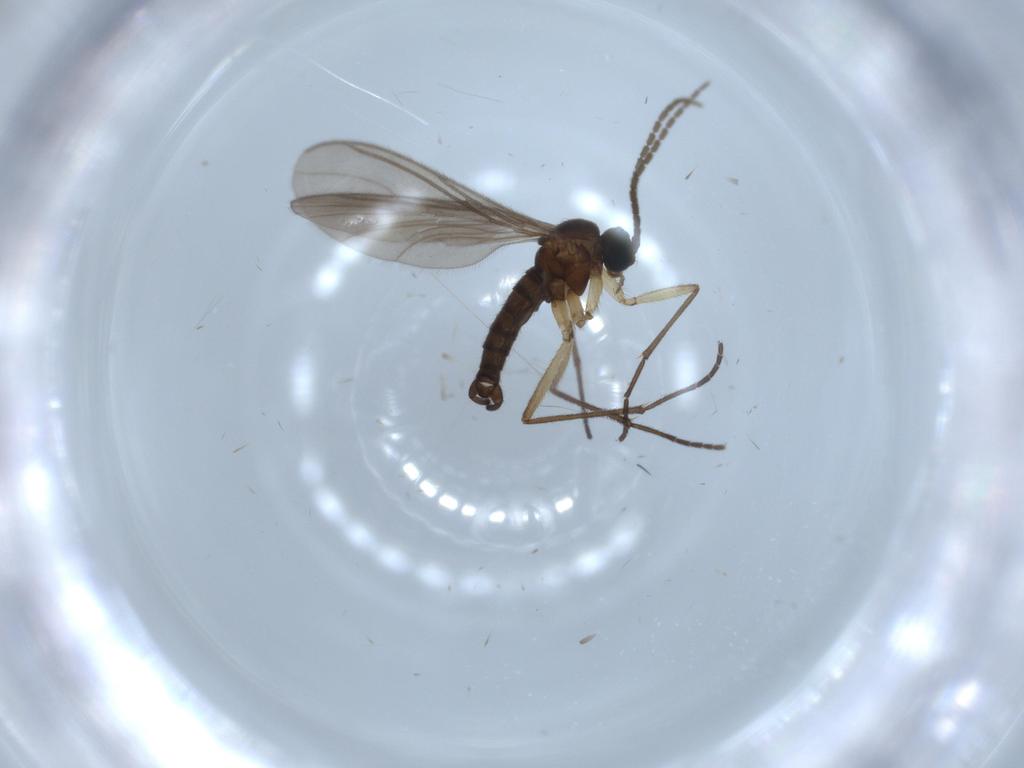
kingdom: Animalia
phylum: Arthropoda
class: Insecta
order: Diptera
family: Sciaridae
